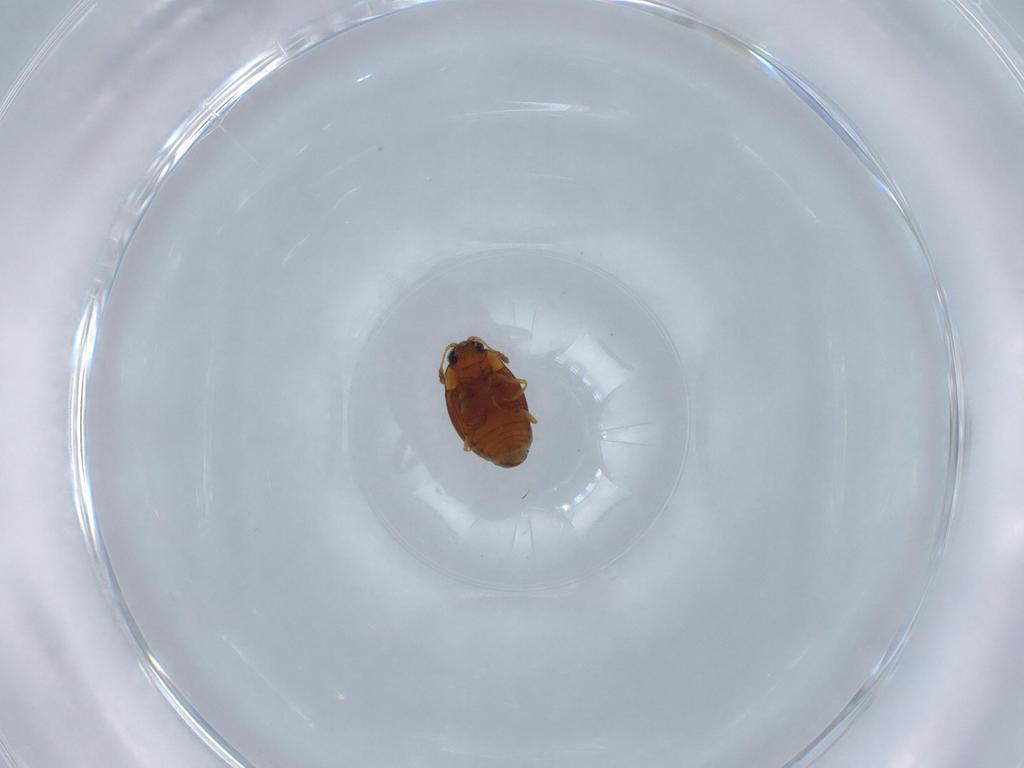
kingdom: Animalia
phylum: Arthropoda
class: Insecta
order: Coleoptera
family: Cryptophagidae
